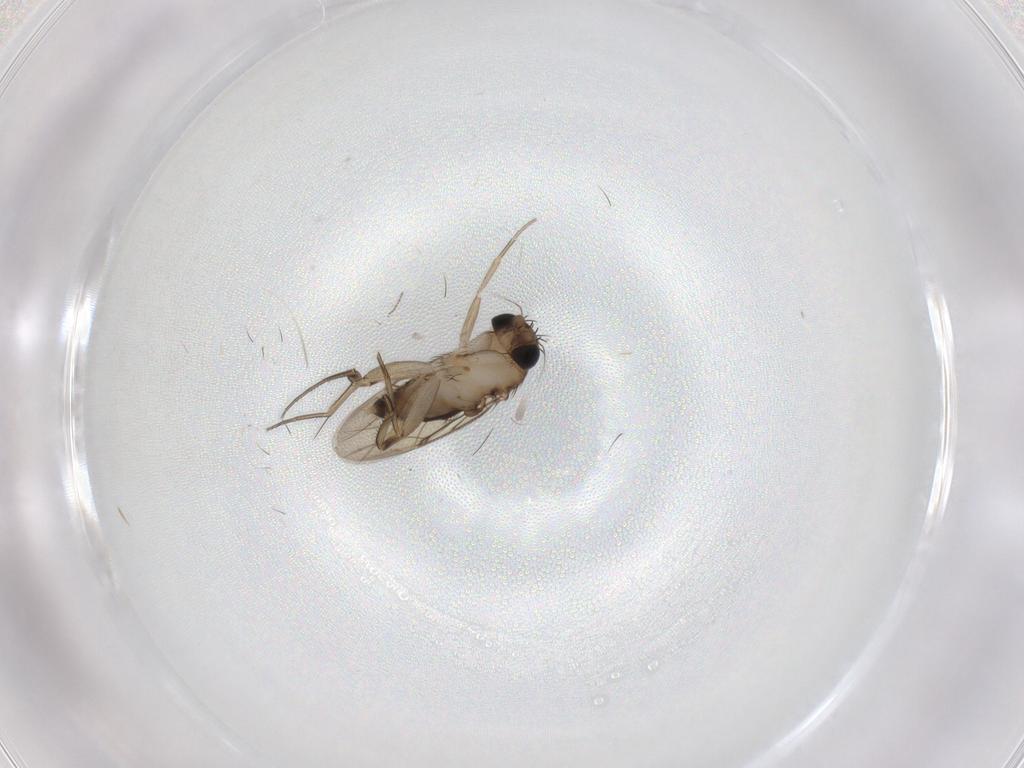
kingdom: Animalia
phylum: Arthropoda
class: Insecta
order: Diptera
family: Phoridae
